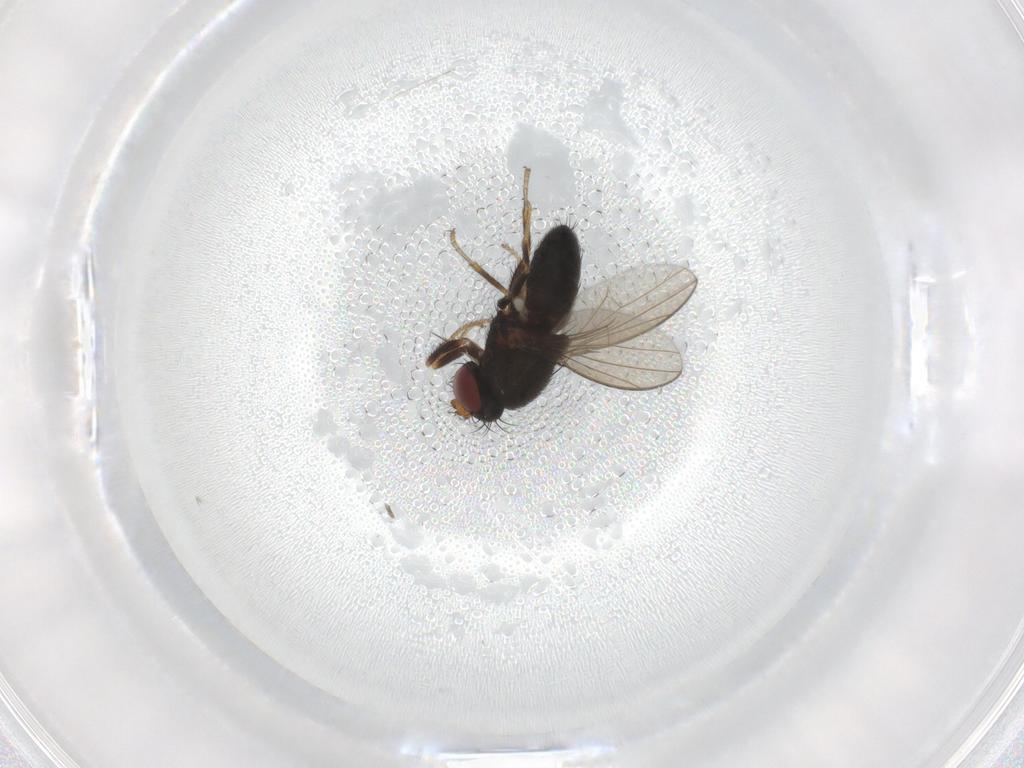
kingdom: Animalia
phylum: Arthropoda
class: Insecta
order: Diptera
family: Ephydridae
